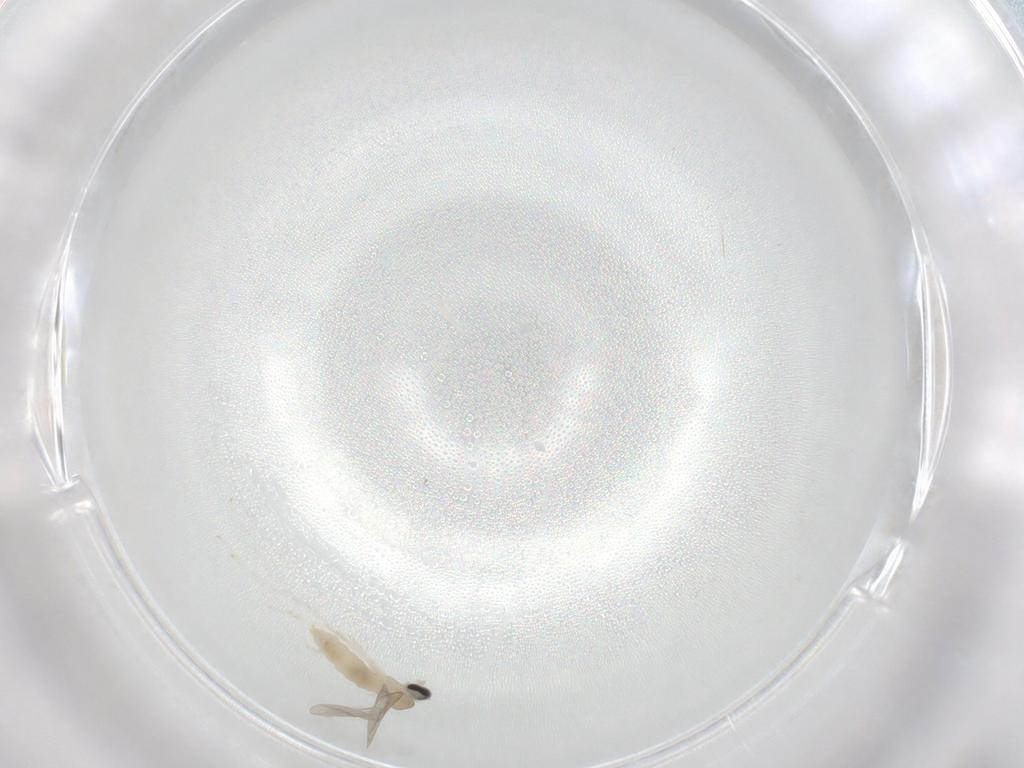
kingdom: Animalia
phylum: Arthropoda
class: Insecta
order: Diptera
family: Cecidomyiidae
